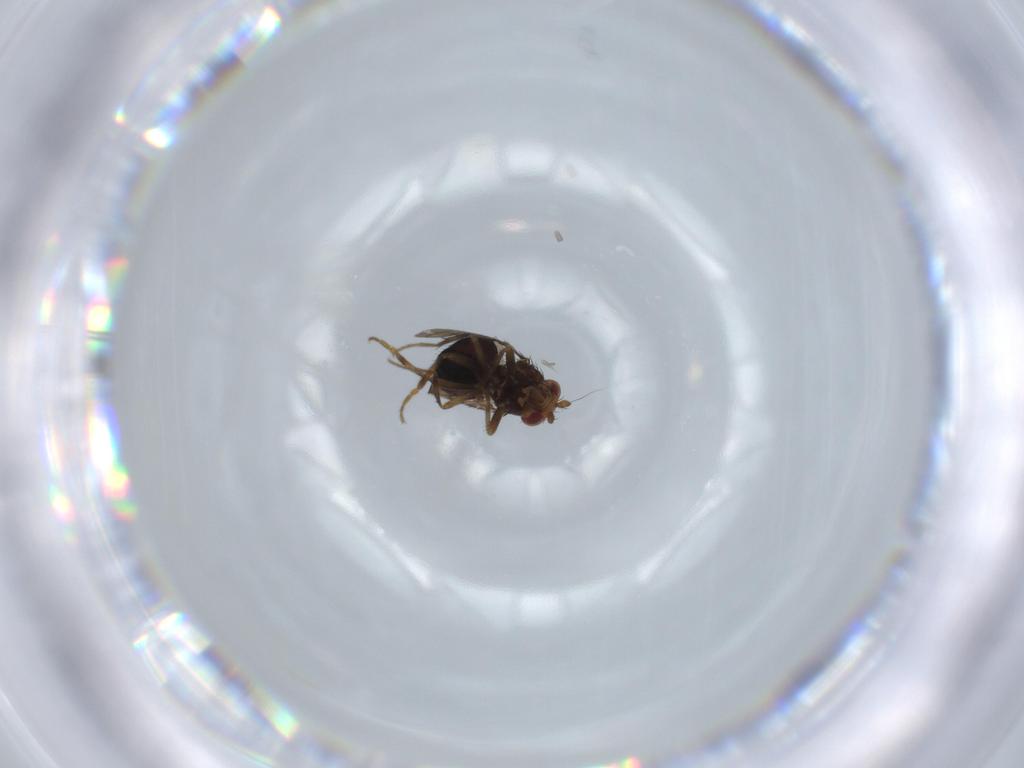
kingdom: Animalia
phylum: Arthropoda
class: Insecta
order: Diptera
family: Sphaeroceridae
